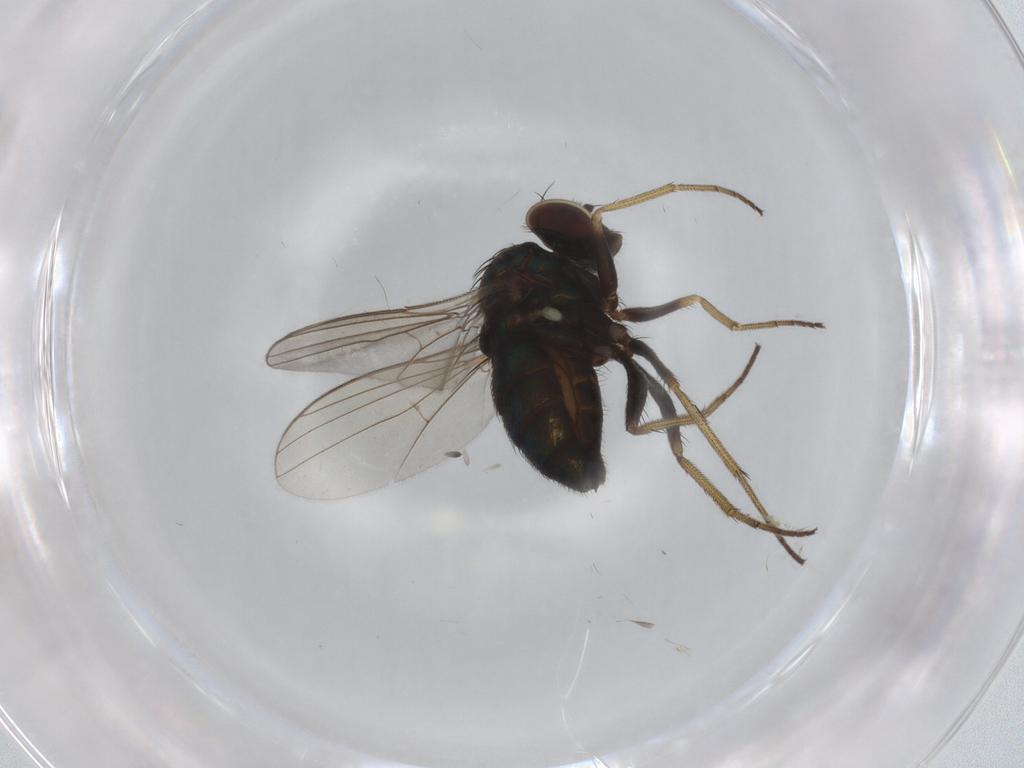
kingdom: Animalia
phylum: Arthropoda
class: Insecta
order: Diptera
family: Dolichopodidae
